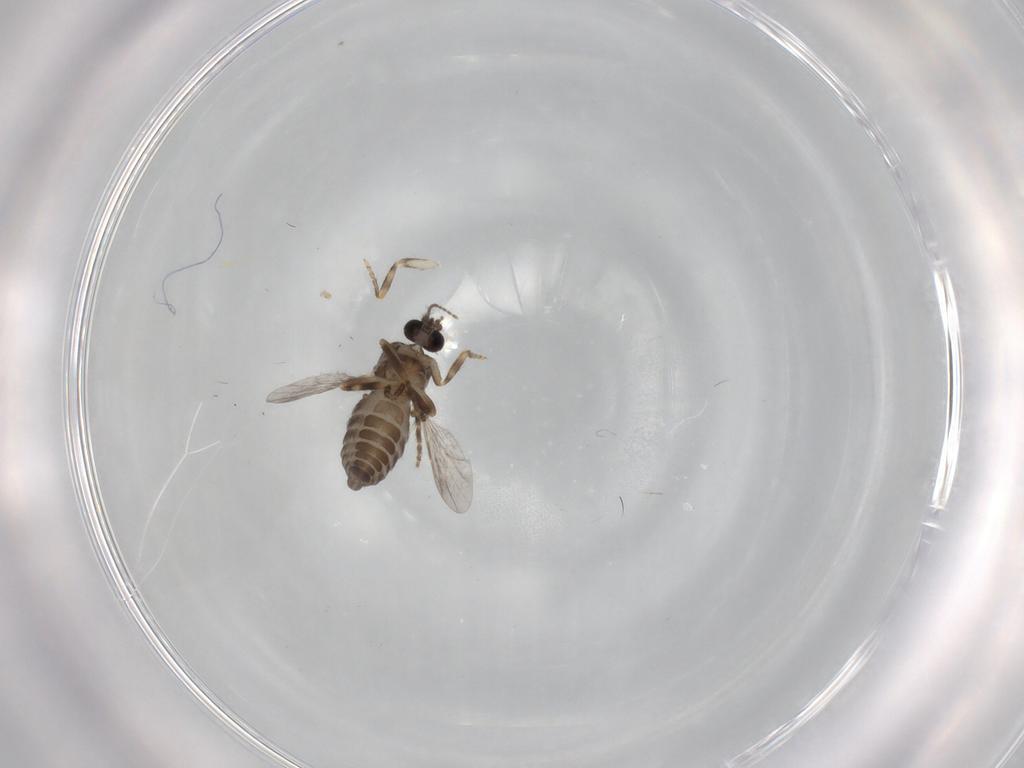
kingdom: Animalia
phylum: Arthropoda
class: Insecta
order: Diptera
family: Ceratopogonidae
